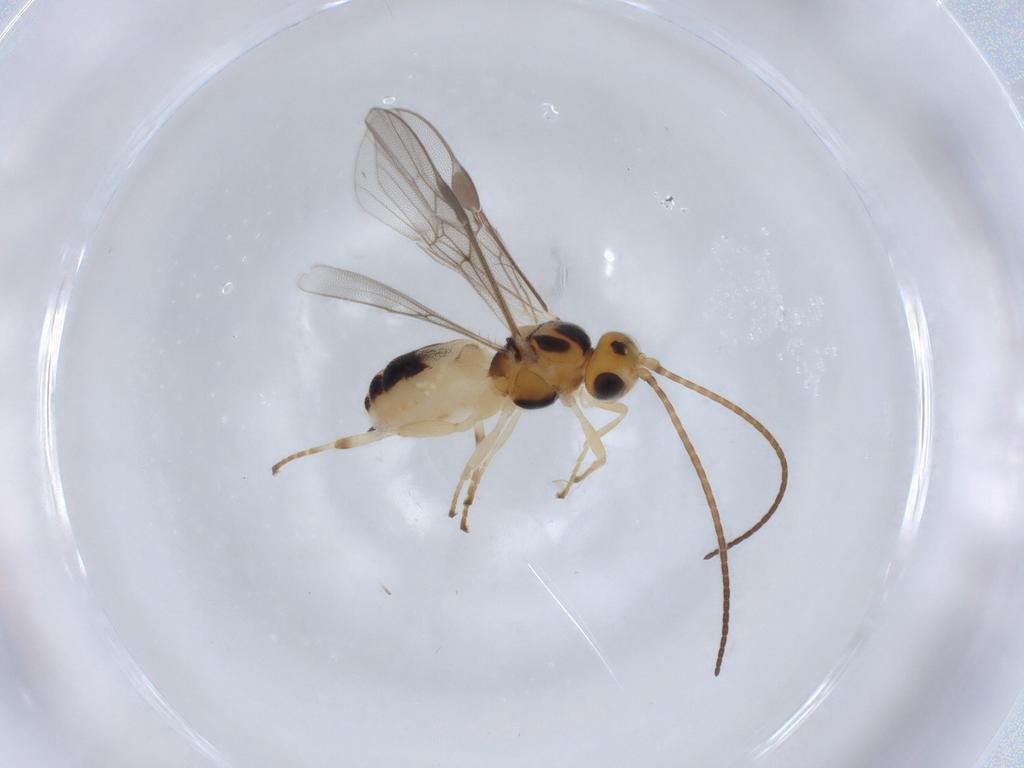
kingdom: Animalia
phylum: Arthropoda
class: Insecta
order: Hymenoptera
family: Braconidae
